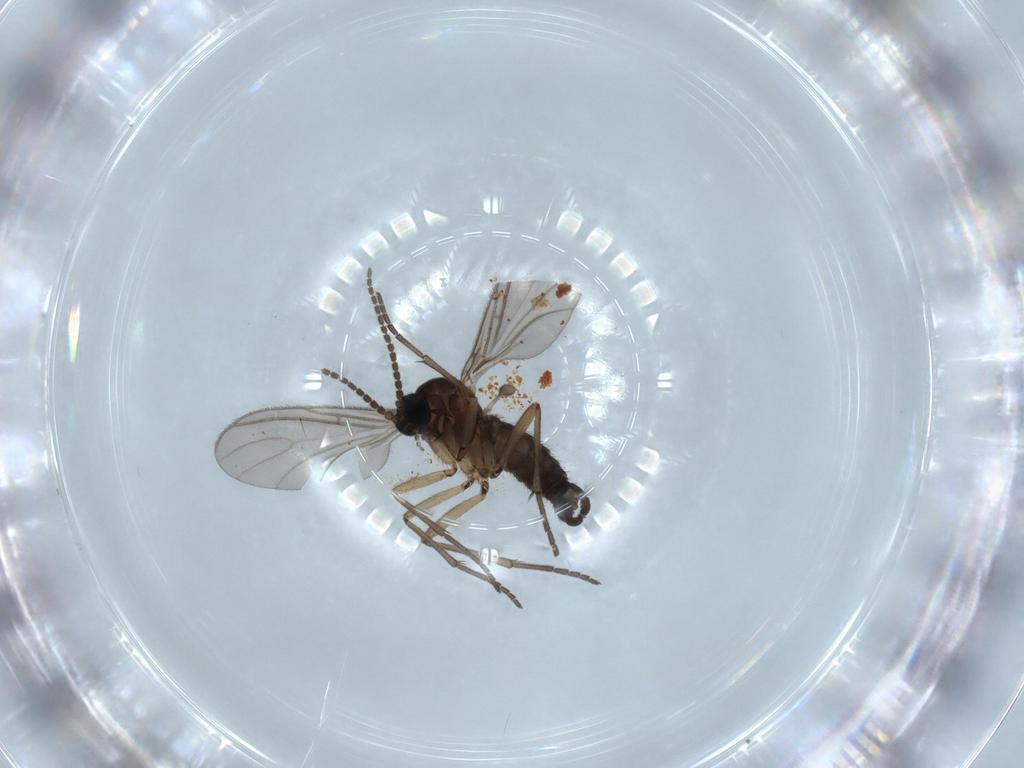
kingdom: Animalia
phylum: Arthropoda
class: Insecta
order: Diptera
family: Sciaridae
